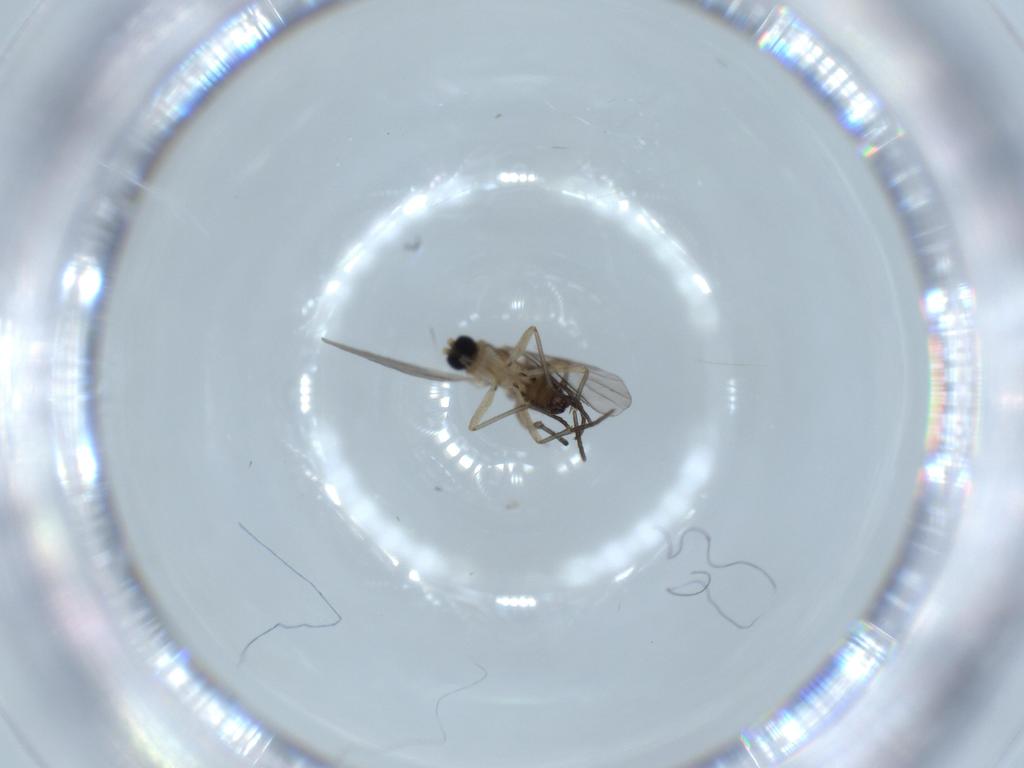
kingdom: Animalia
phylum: Arthropoda
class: Insecta
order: Diptera
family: Sciaridae
